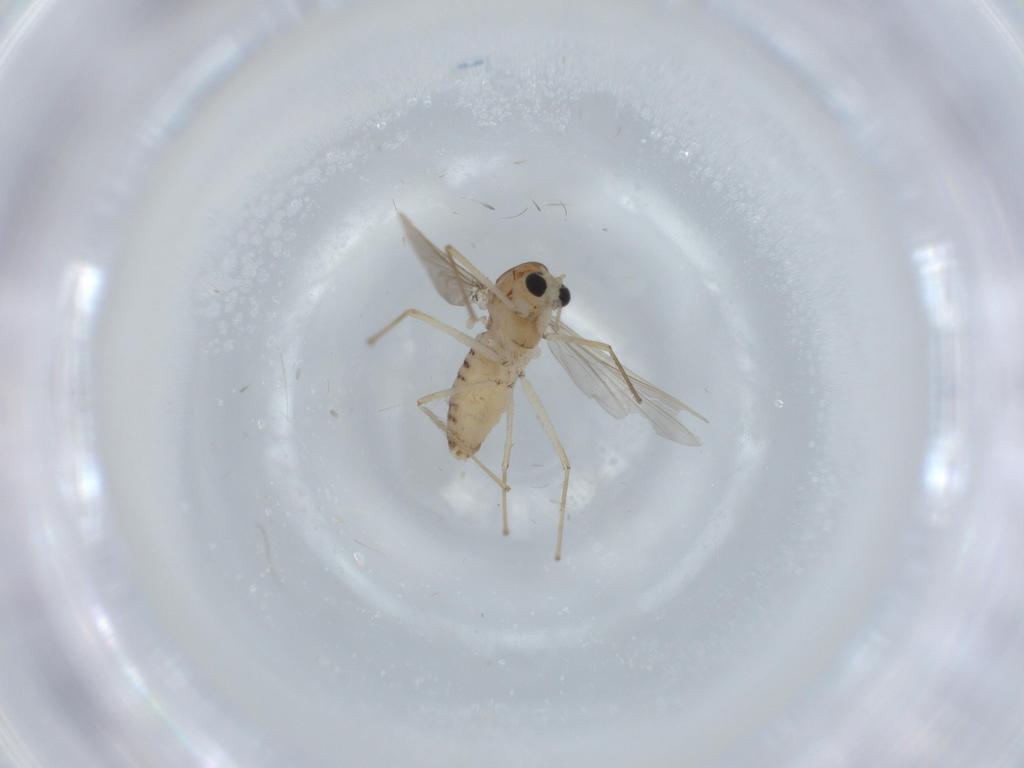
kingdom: Animalia
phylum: Arthropoda
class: Insecta
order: Diptera
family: Chironomidae
